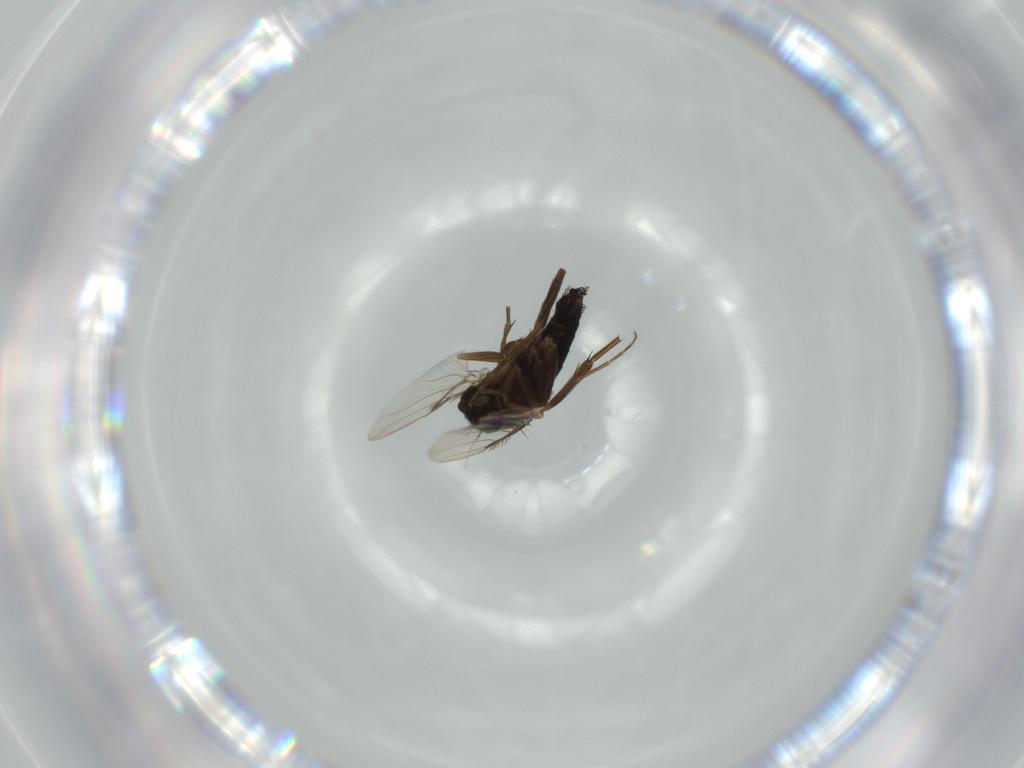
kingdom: Animalia
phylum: Arthropoda
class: Insecta
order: Diptera
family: Phoridae
